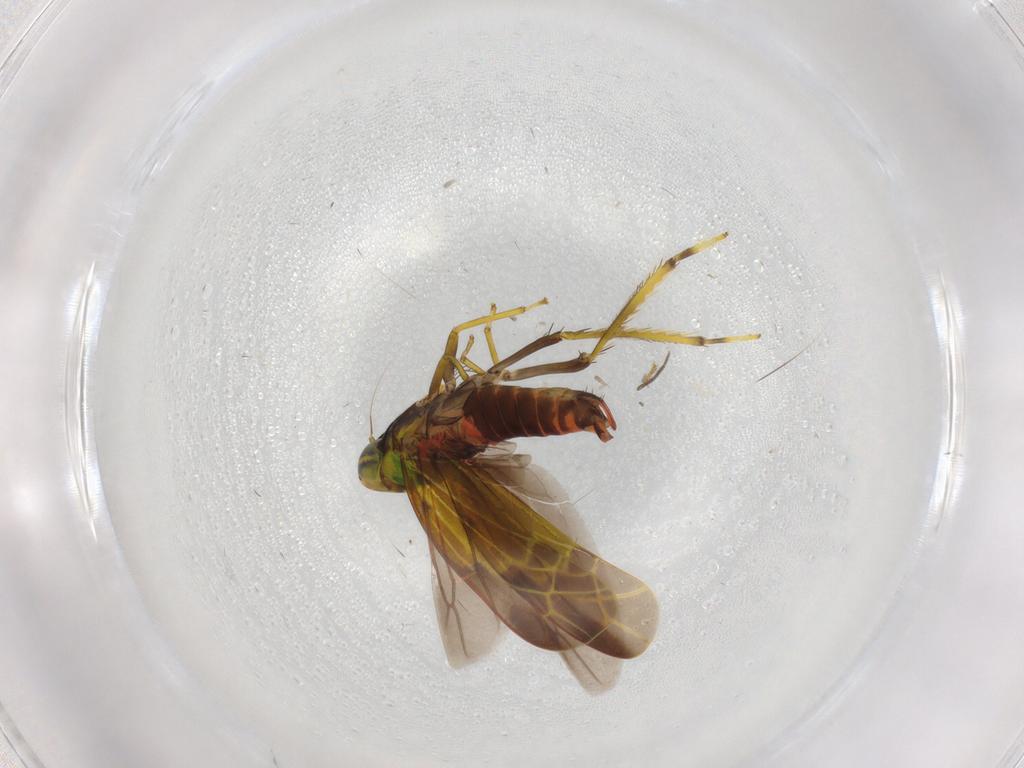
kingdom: Animalia
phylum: Arthropoda
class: Insecta
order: Hemiptera
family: Cicadellidae
